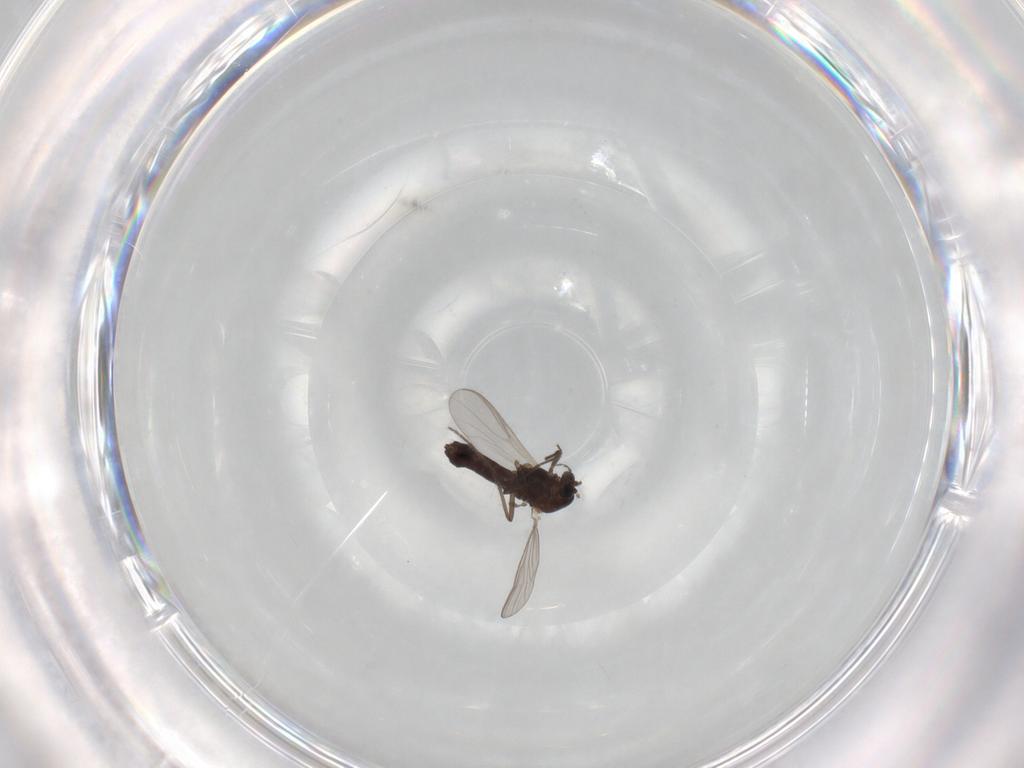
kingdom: Animalia
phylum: Arthropoda
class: Insecta
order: Diptera
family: Chironomidae
